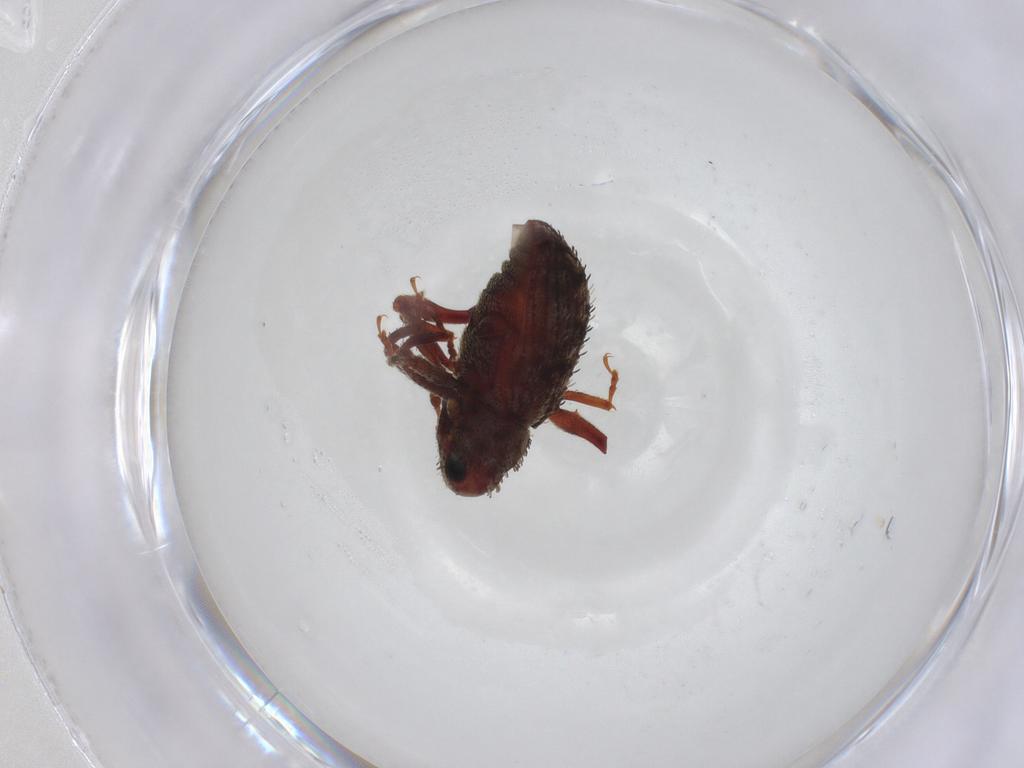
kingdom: Animalia
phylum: Arthropoda
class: Insecta
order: Coleoptera
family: Curculionidae
